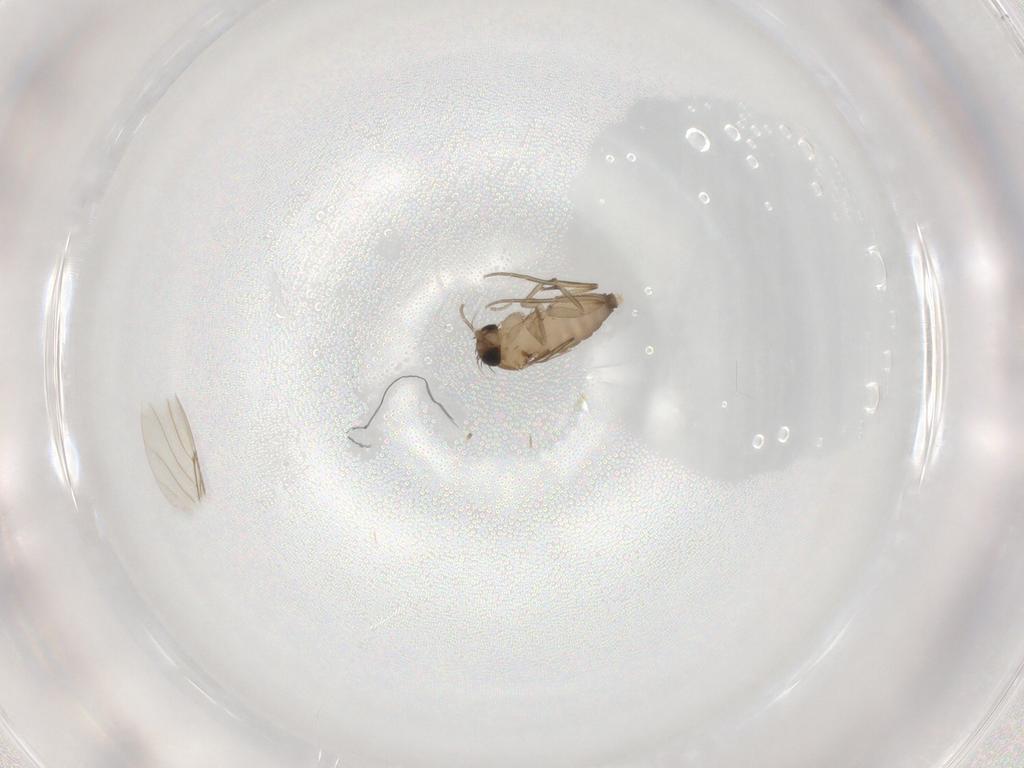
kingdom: Animalia
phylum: Arthropoda
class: Insecta
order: Diptera
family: Phoridae
